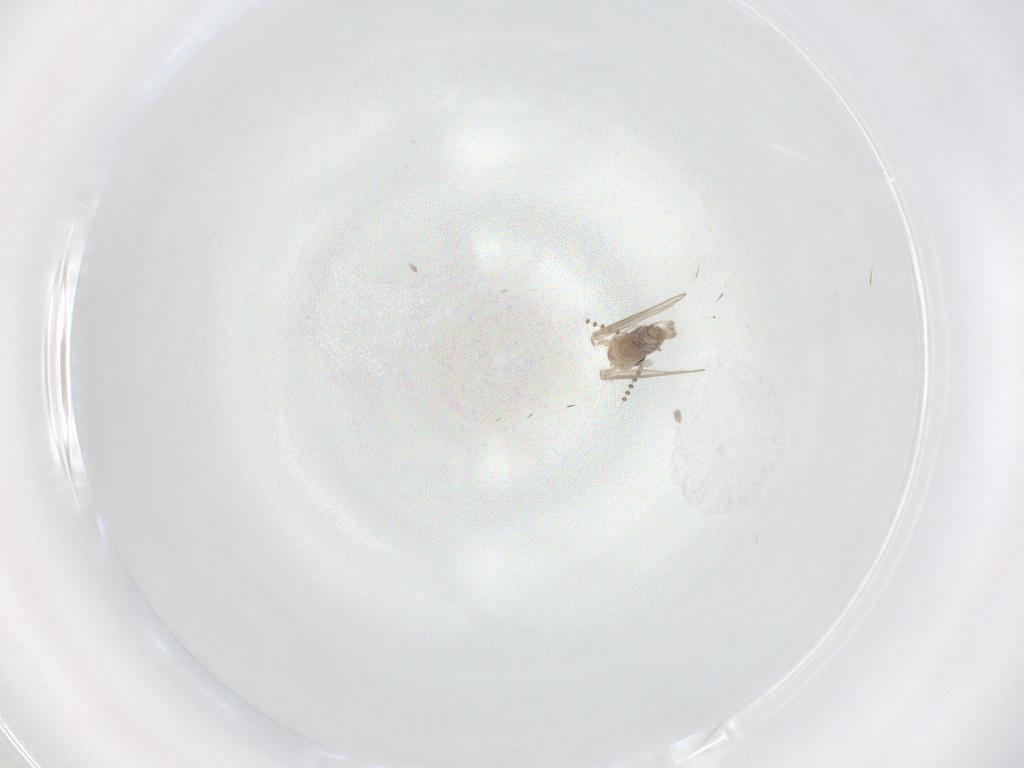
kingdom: Animalia
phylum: Arthropoda
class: Insecta
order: Diptera
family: Psychodidae
